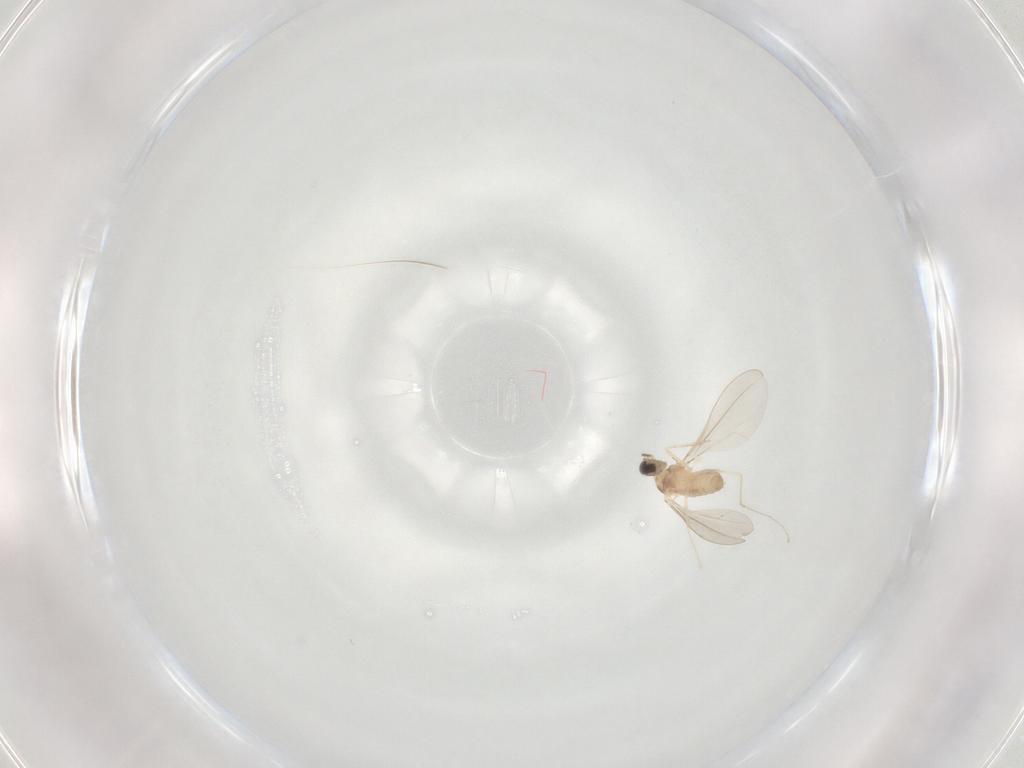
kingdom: Animalia
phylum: Arthropoda
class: Insecta
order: Diptera
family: Cecidomyiidae
